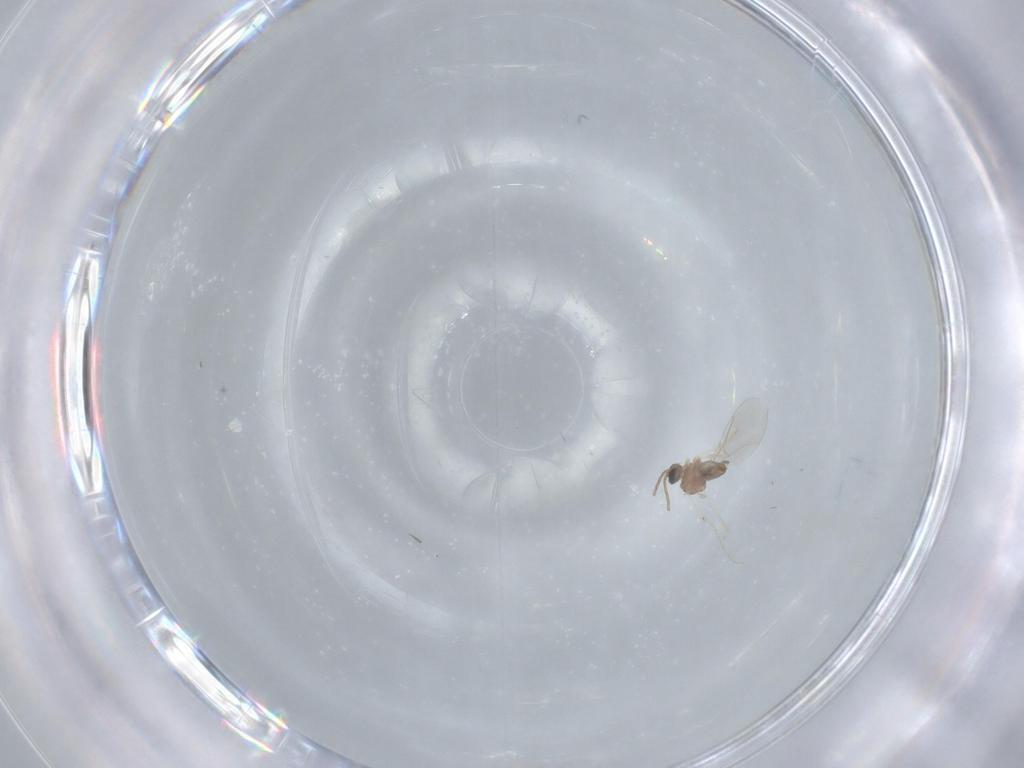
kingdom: Animalia
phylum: Arthropoda
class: Insecta
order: Diptera
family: Cecidomyiidae
